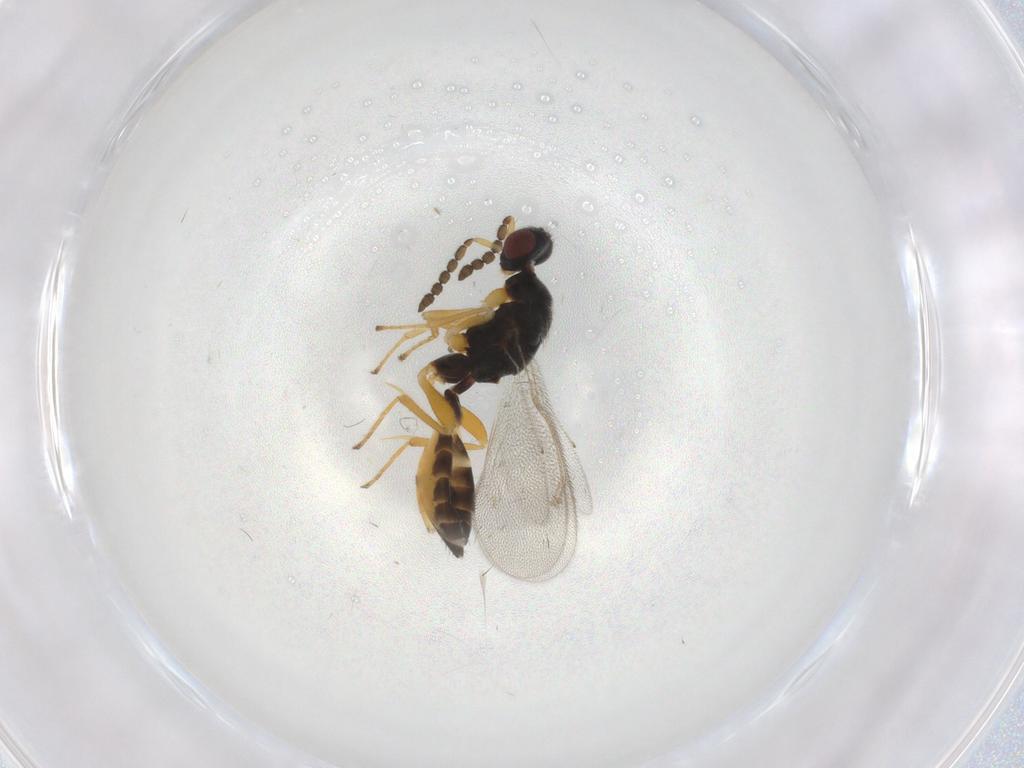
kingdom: Animalia
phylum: Arthropoda
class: Insecta
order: Hymenoptera
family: Eulophidae
